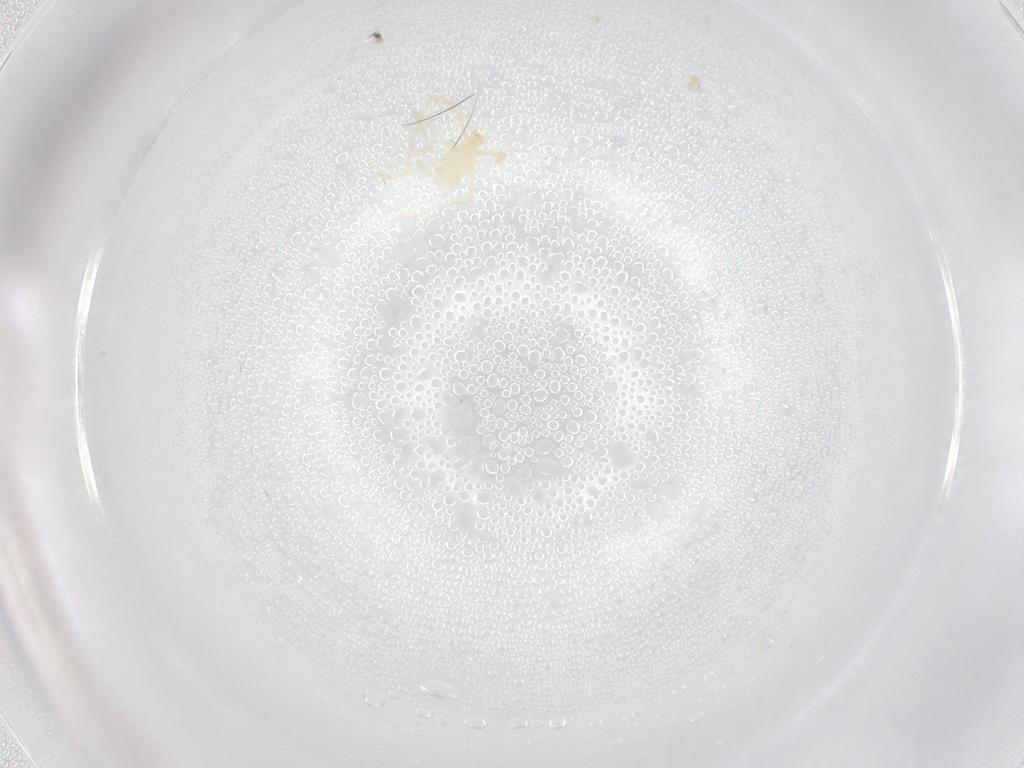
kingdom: Animalia
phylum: Arthropoda
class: Arachnida
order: Trombidiformes
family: Erythraeidae
